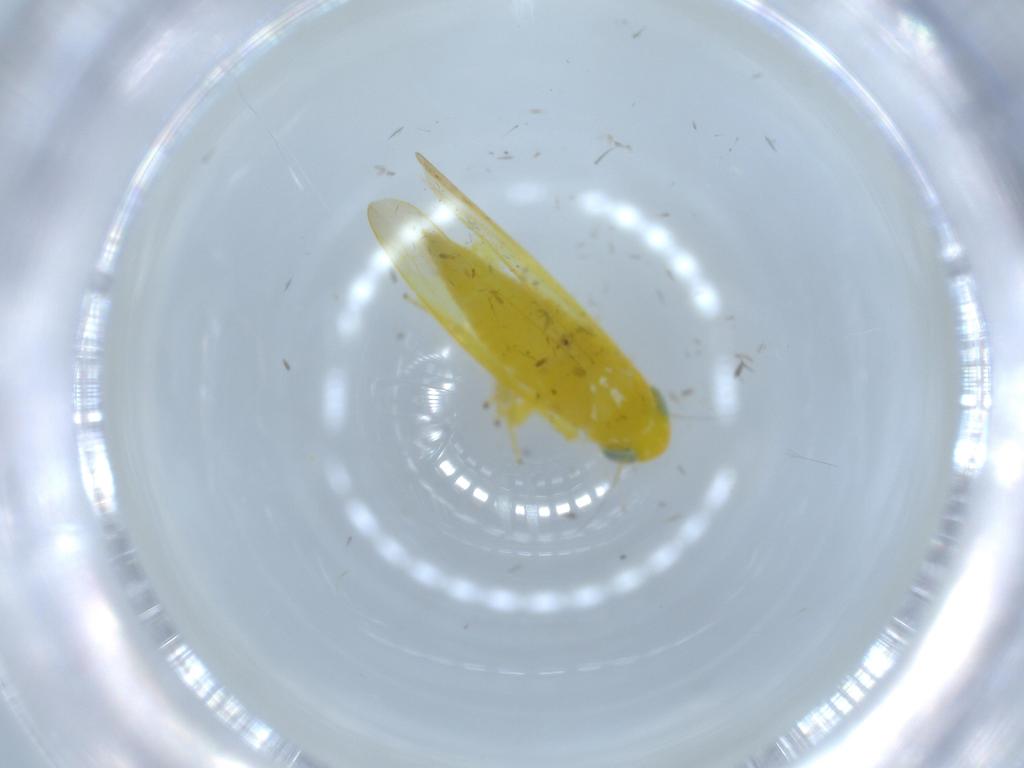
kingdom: Animalia
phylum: Arthropoda
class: Insecta
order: Hemiptera
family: Cicadellidae
